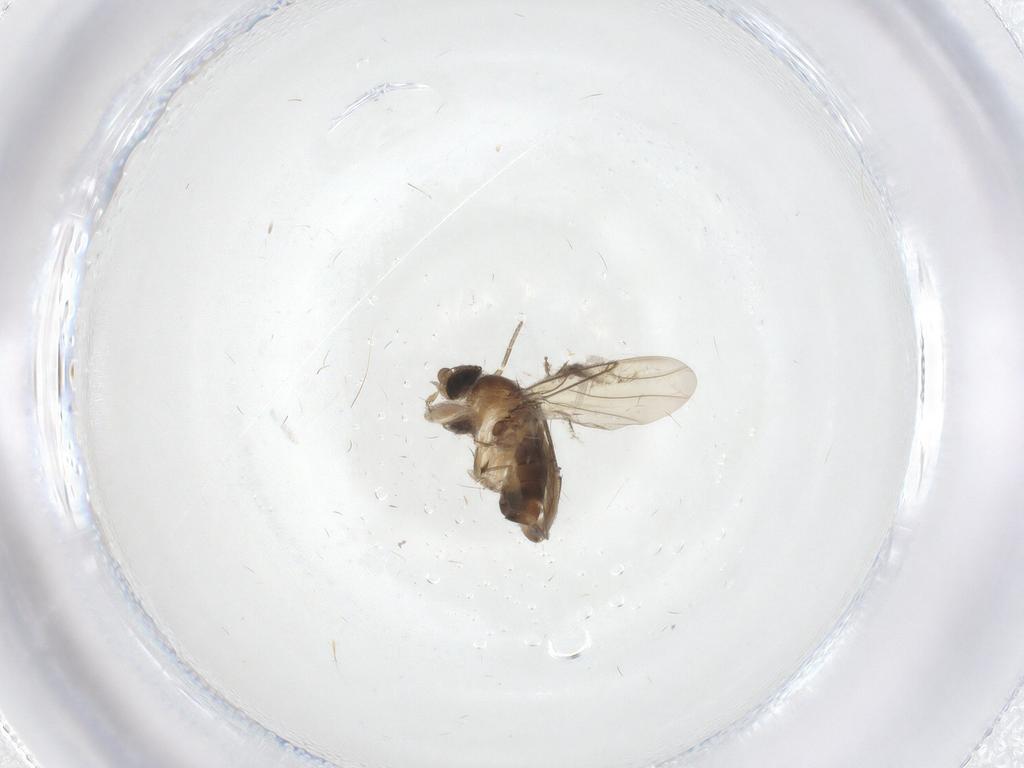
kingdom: Animalia
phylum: Arthropoda
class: Insecta
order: Diptera
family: Cecidomyiidae
